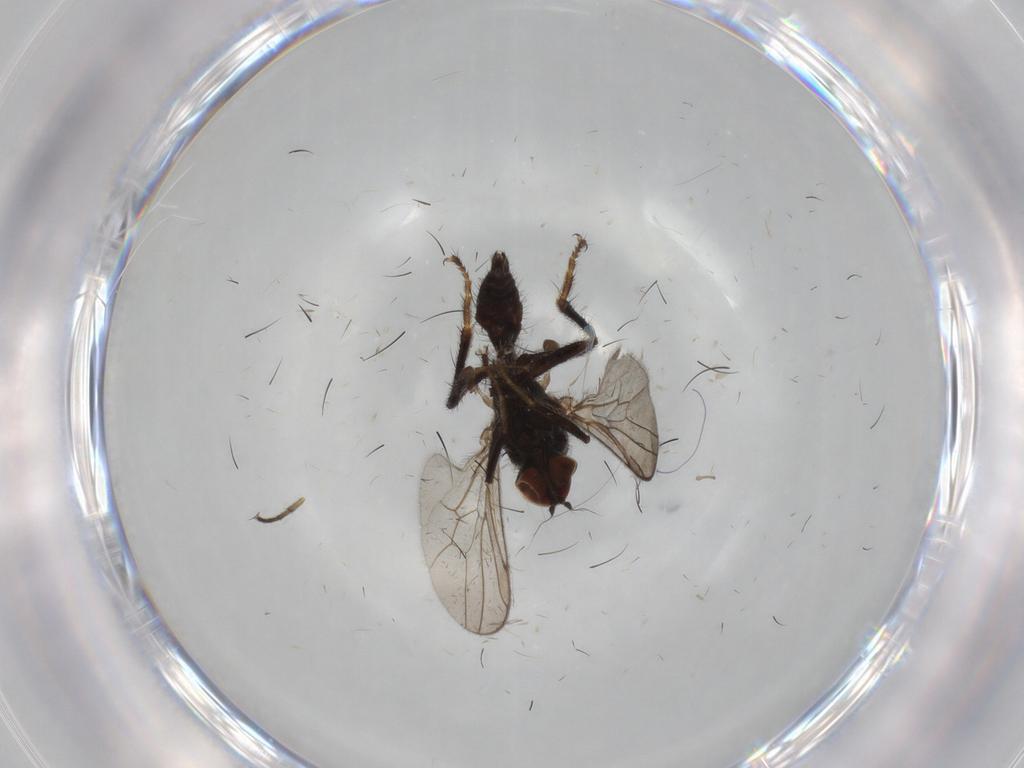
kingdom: Animalia
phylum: Arthropoda
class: Insecta
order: Diptera
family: Hybotidae
